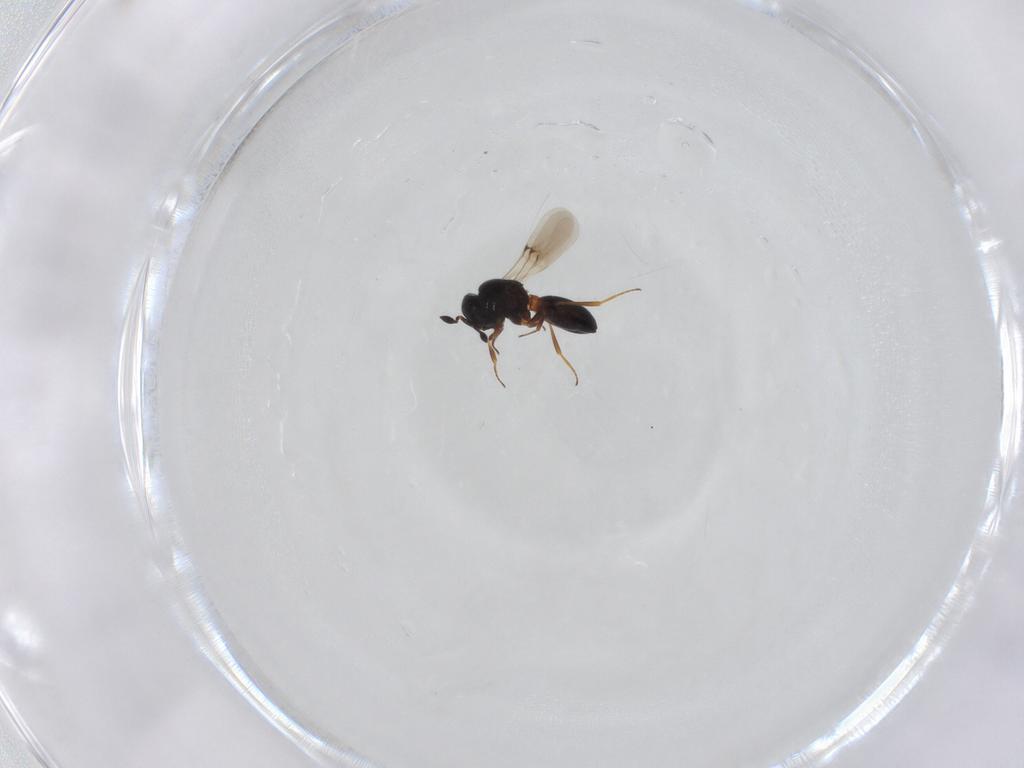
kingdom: Animalia
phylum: Arthropoda
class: Insecta
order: Hymenoptera
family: Scelionidae
